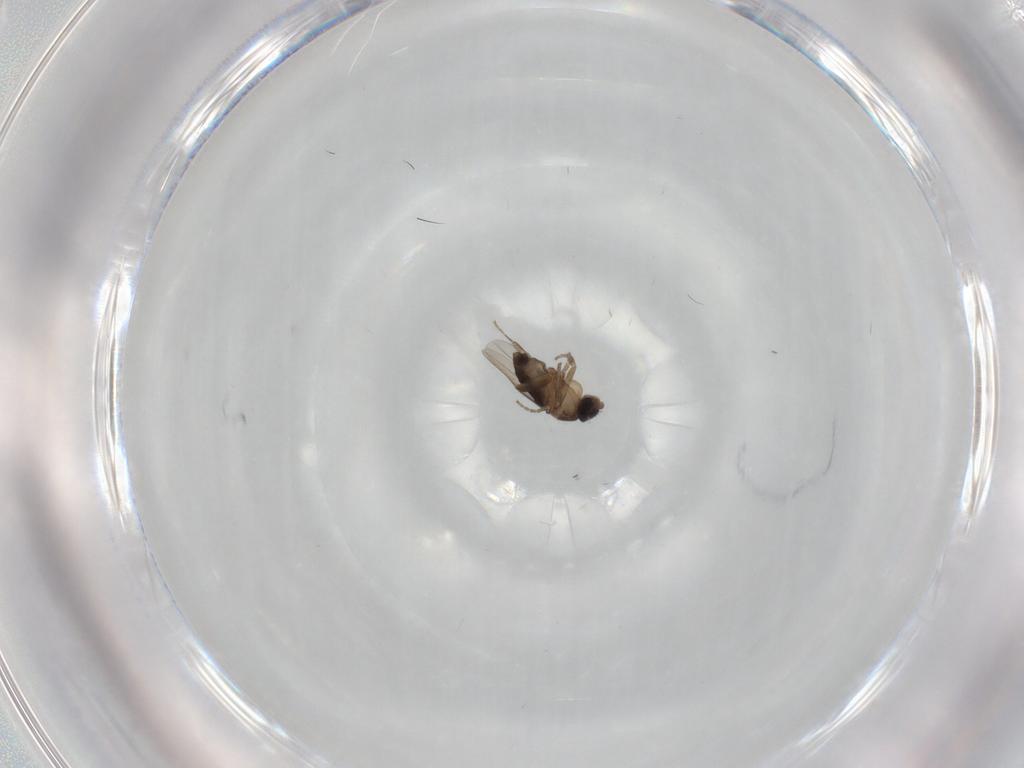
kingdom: Animalia
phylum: Arthropoda
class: Insecta
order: Diptera
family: Phoridae
